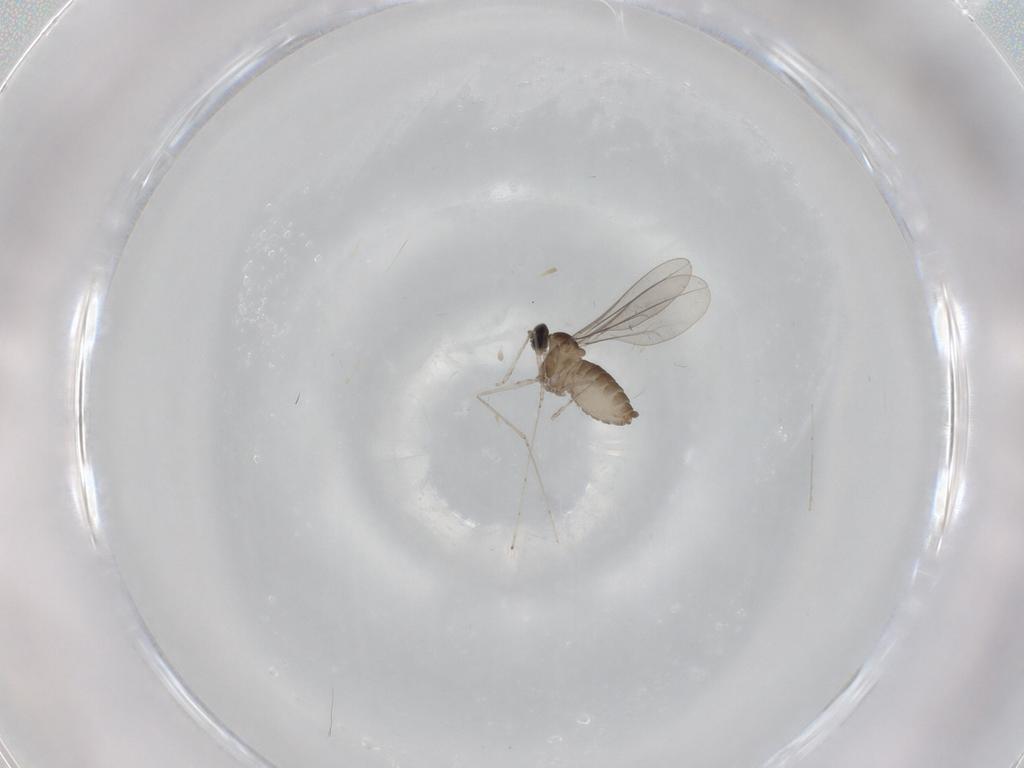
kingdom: Animalia
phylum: Arthropoda
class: Insecta
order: Diptera
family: Cecidomyiidae
